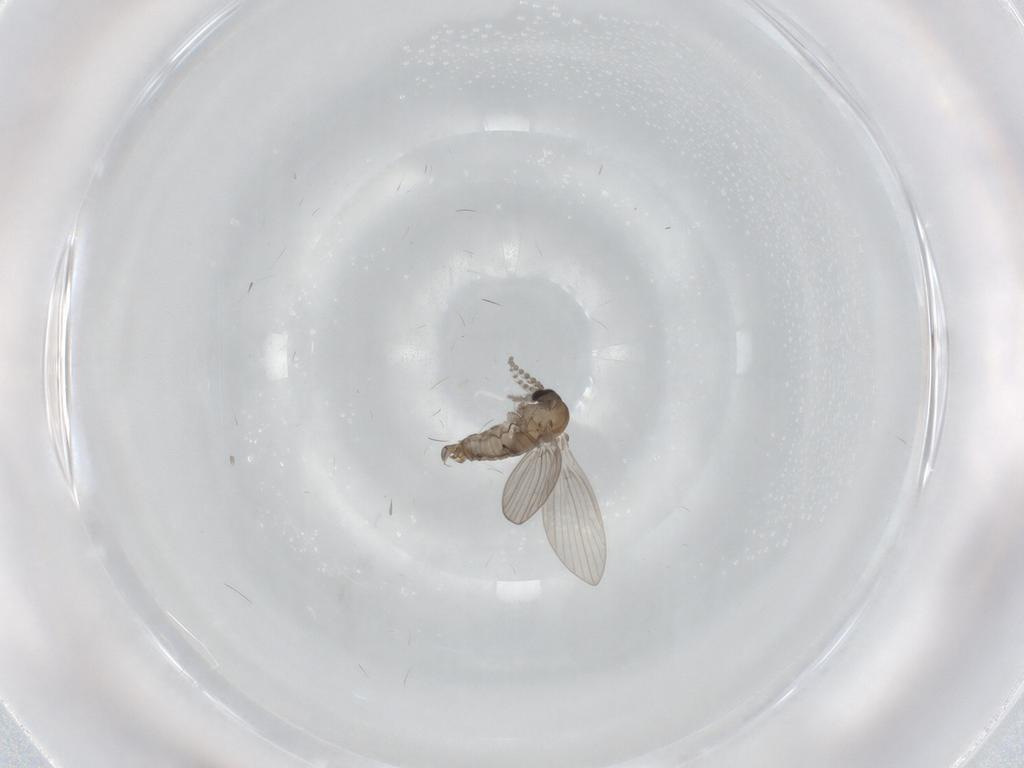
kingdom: Animalia
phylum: Arthropoda
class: Insecta
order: Diptera
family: Psychodidae
